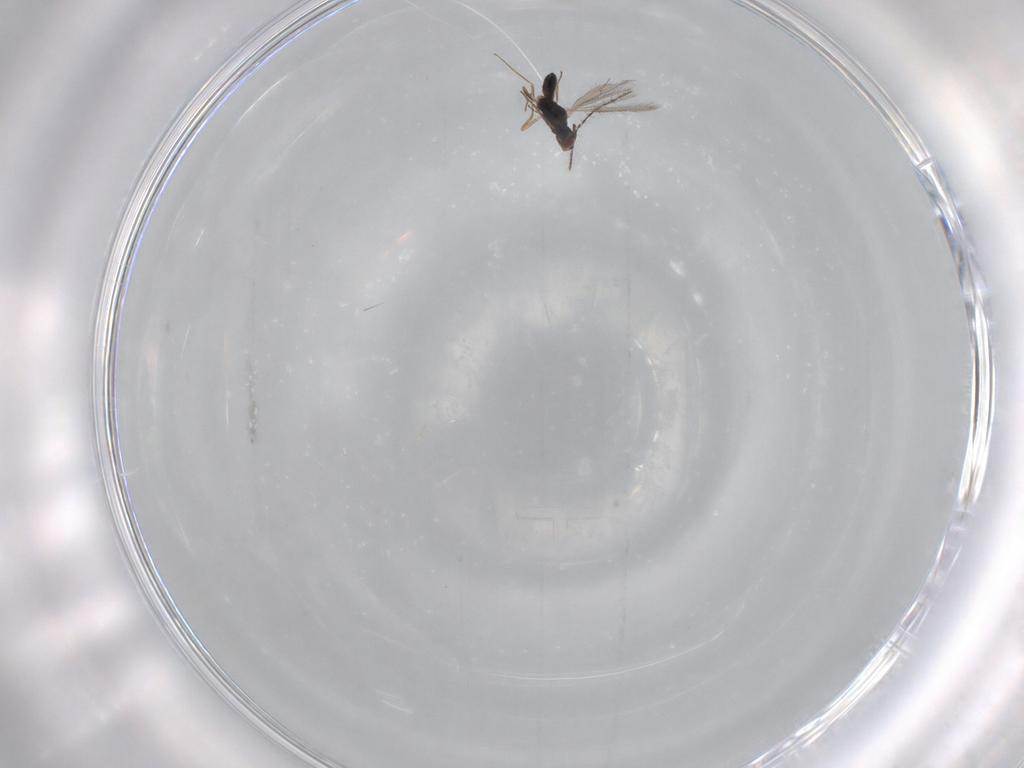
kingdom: Animalia
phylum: Arthropoda
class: Insecta
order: Hymenoptera
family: Pteromalidae
